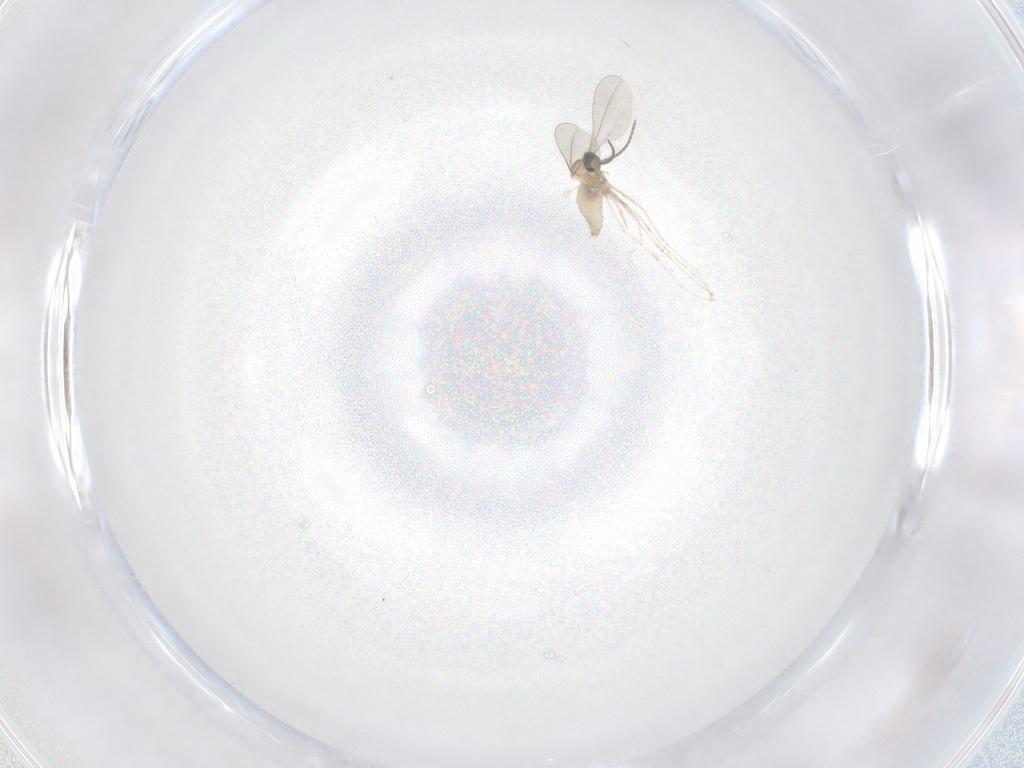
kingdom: Animalia
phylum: Arthropoda
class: Insecta
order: Diptera
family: Cecidomyiidae
